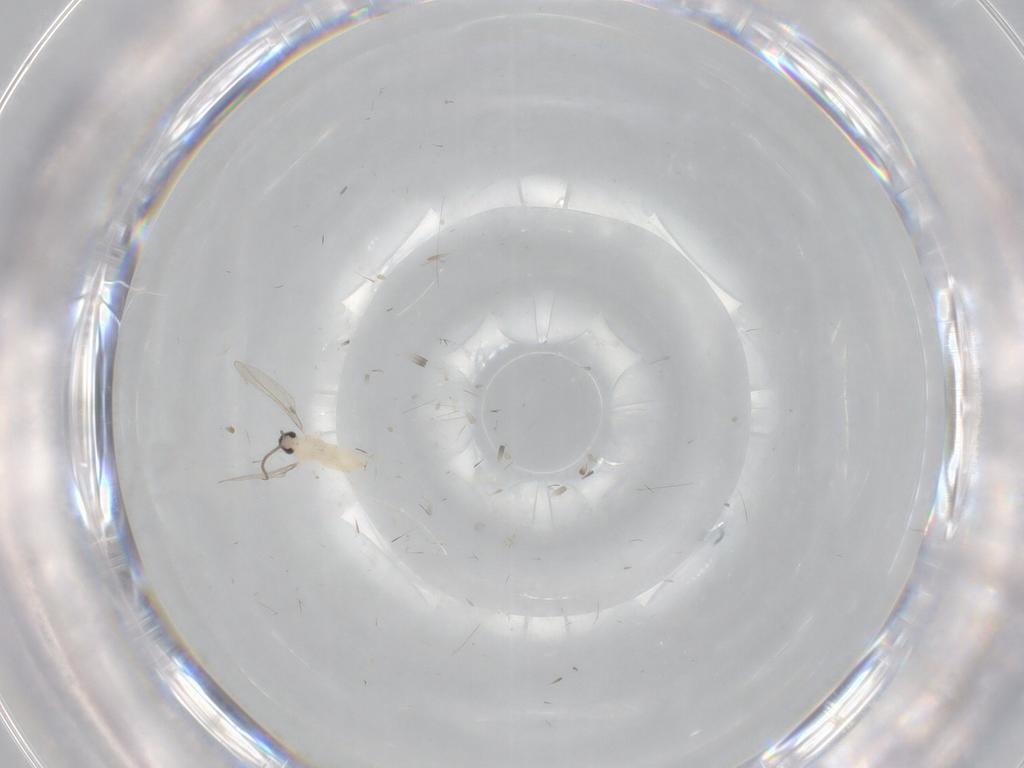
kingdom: Animalia
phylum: Arthropoda
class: Insecta
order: Diptera
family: Cecidomyiidae
